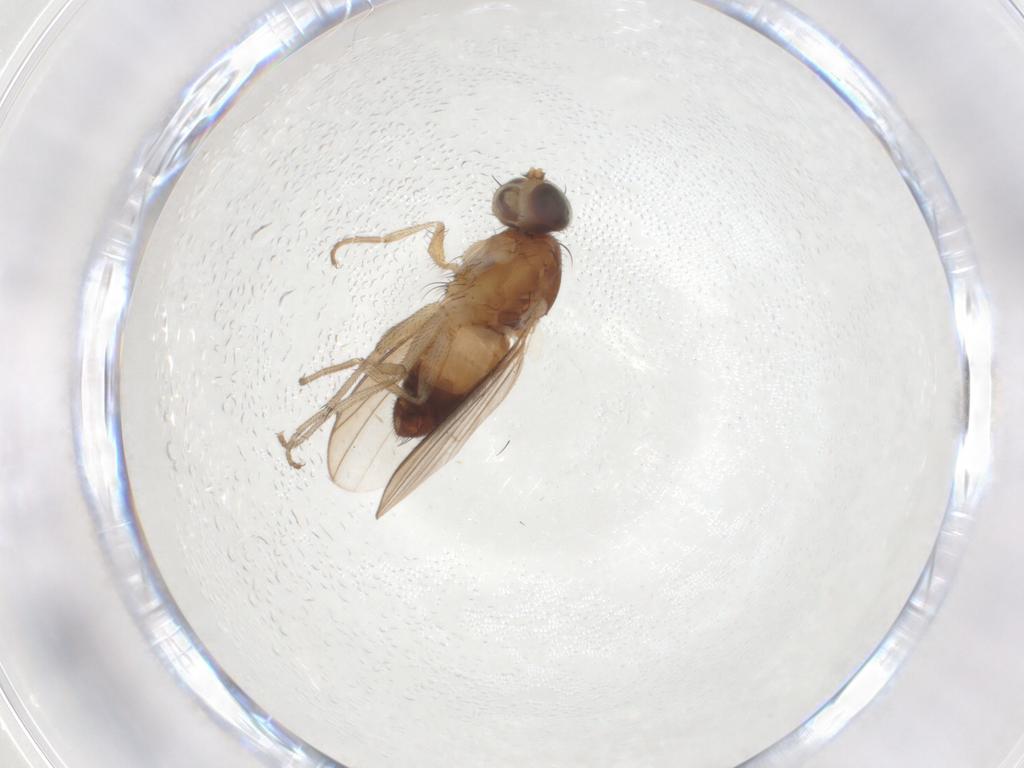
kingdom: Animalia
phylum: Arthropoda
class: Insecta
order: Diptera
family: Heleomyzidae
